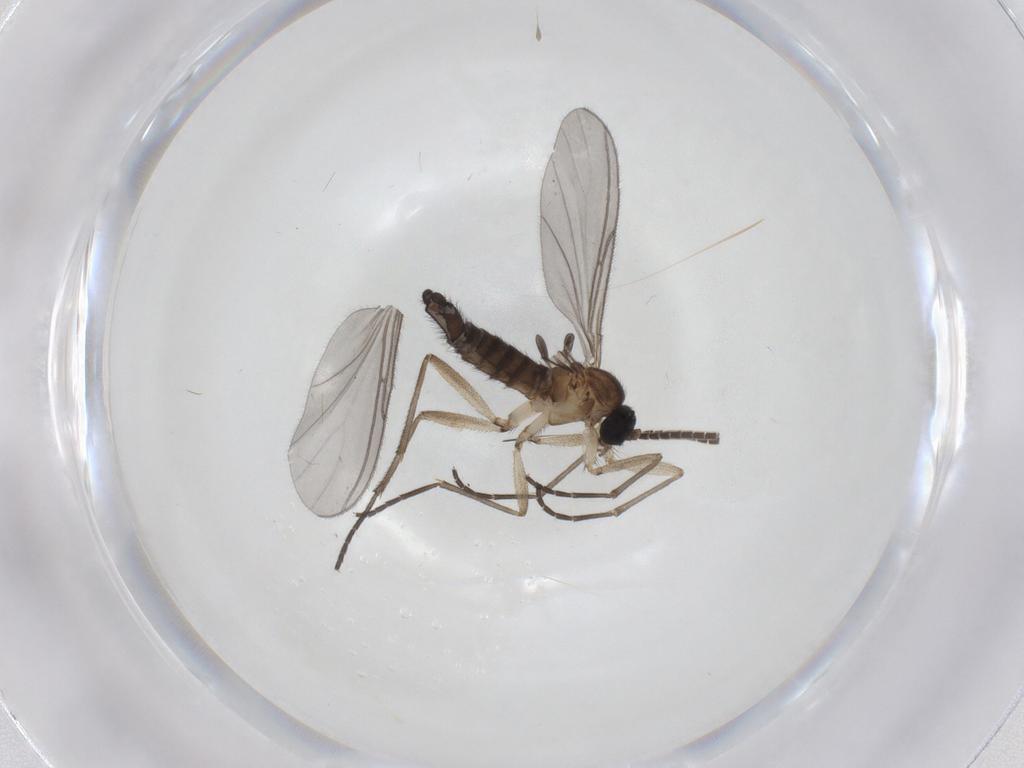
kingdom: Animalia
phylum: Arthropoda
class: Insecta
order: Diptera
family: Sciaridae
